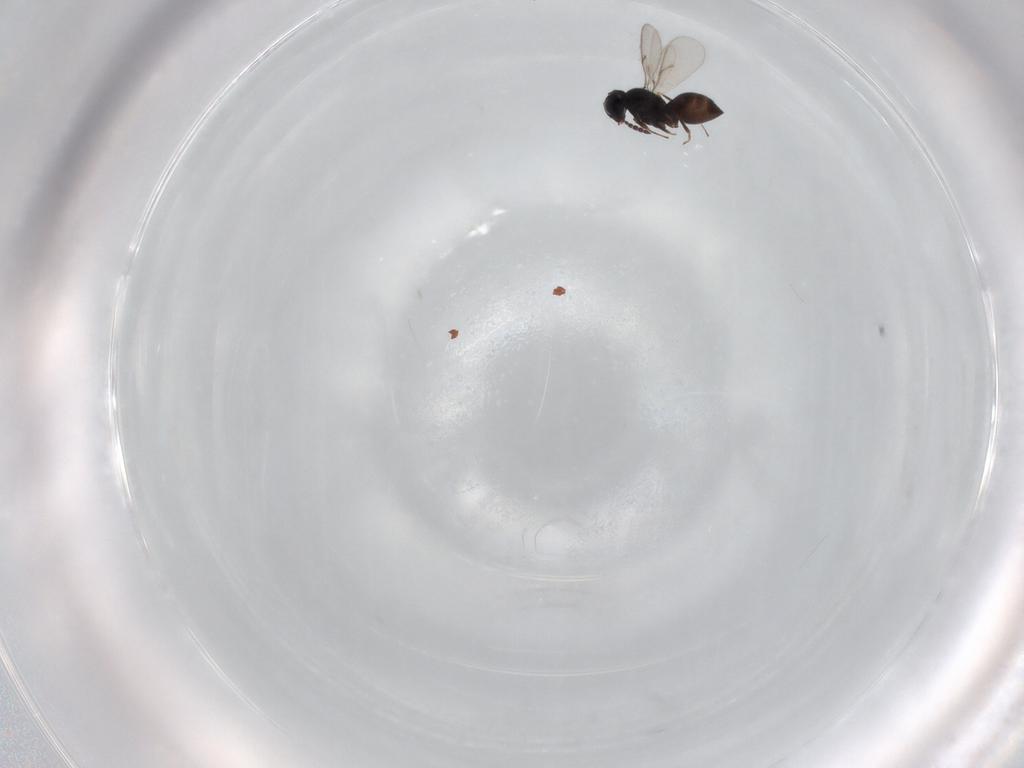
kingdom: Animalia
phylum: Arthropoda
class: Insecta
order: Hymenoptera
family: Scelionidae
